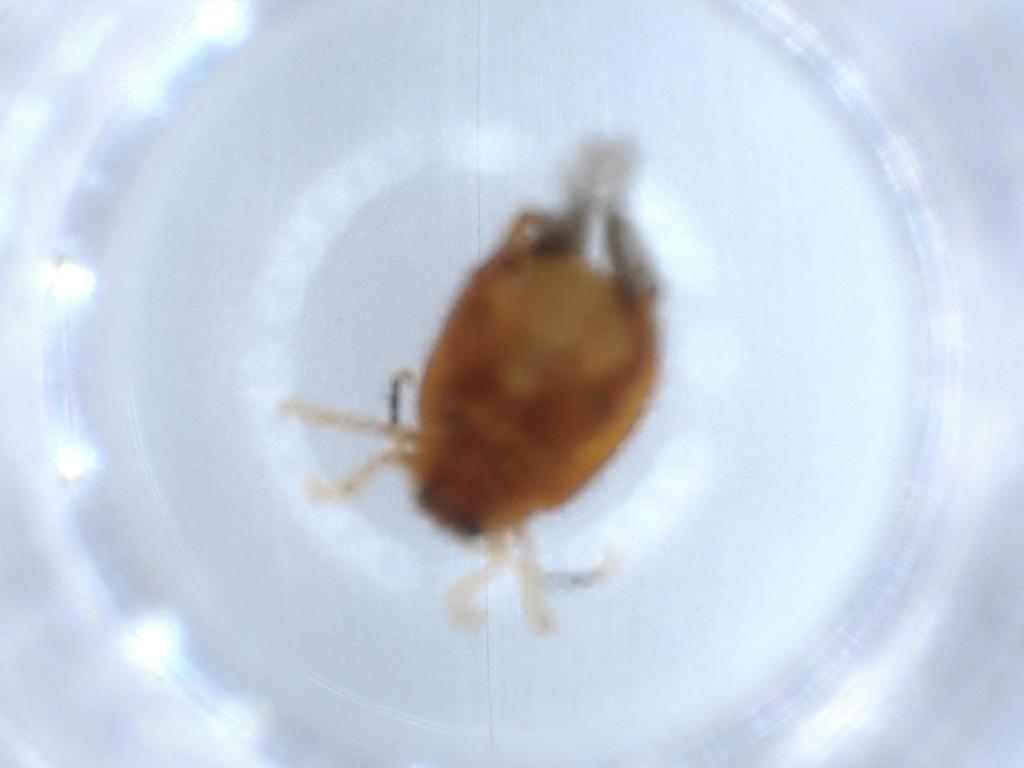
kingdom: Animalia
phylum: Arthropoda
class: Insecta
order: Coleoptera
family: Chrysomelidae
